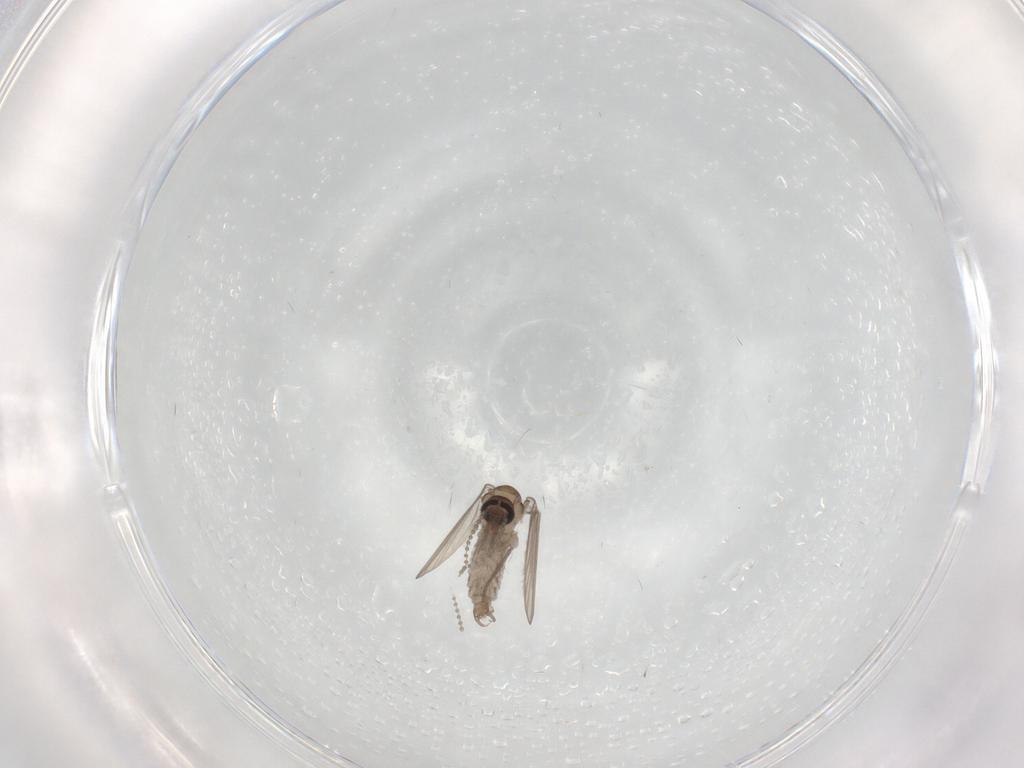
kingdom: Animalia
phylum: Arthropoda
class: Insecta
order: Diptera
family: Psychodidae
